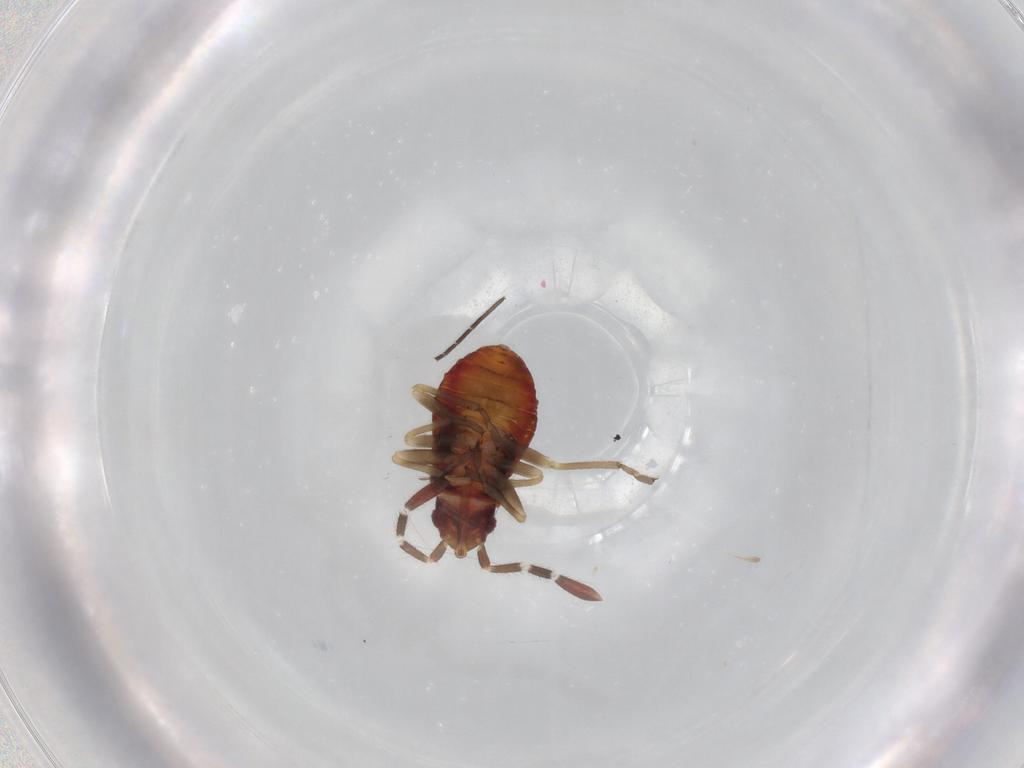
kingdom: Animalia
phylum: Arthropoda
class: Insecta
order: Hemiptera
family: Rhyparochromidae
